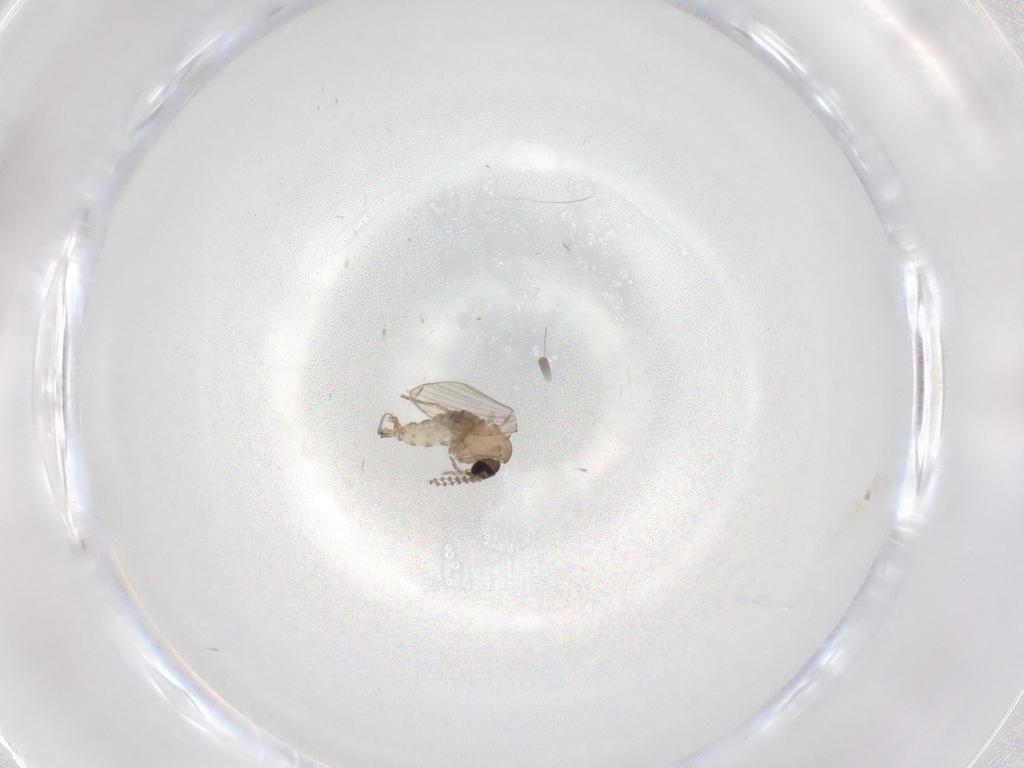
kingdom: Animalia
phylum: Arthropoda
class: Insecta
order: Diptera
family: Psychodidae
